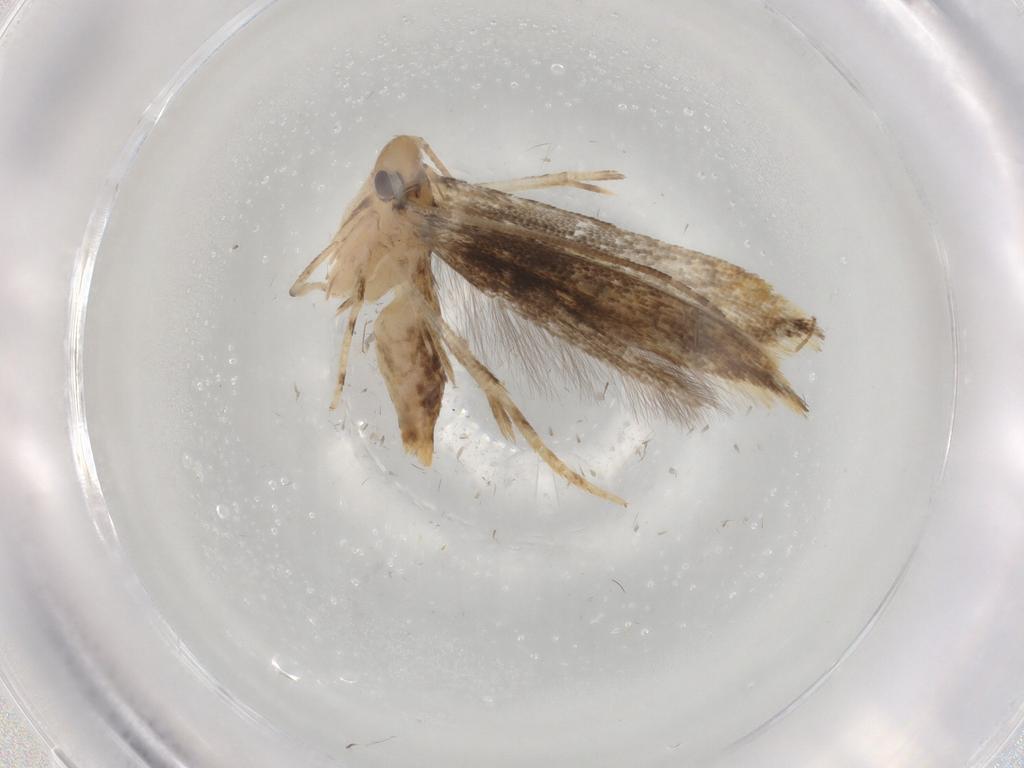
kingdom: Animalia
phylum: Arthropoda
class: Insecta
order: Lepidoptera
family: Momphidae
